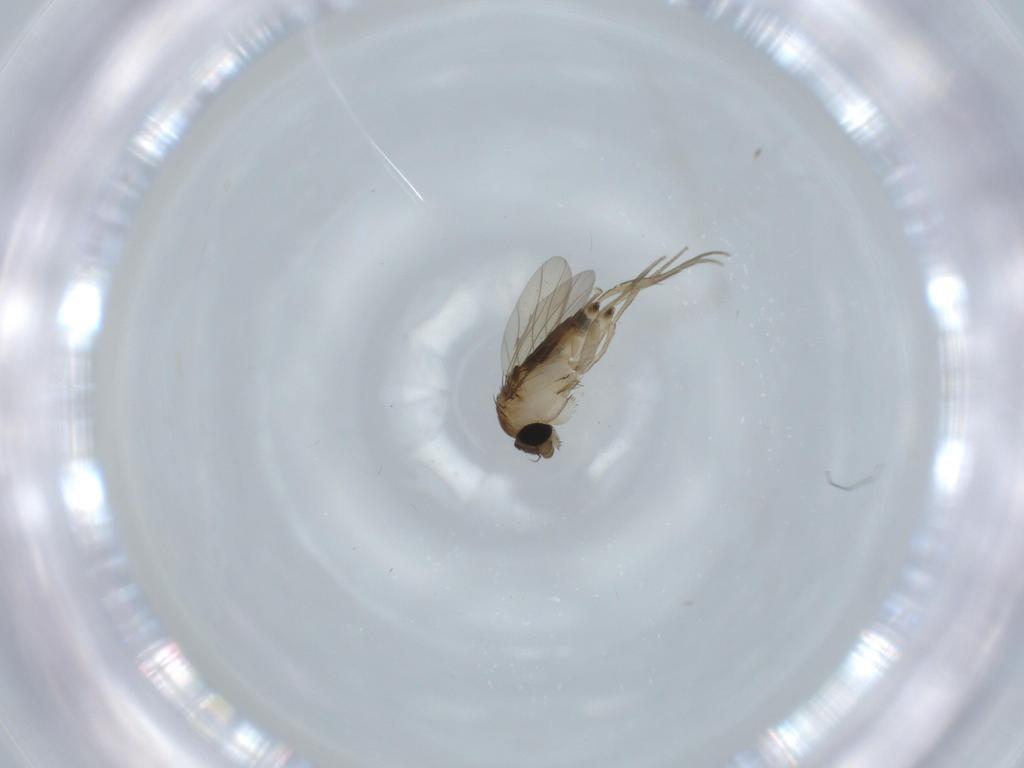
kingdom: Animalia
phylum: Arthropoda
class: Insecta
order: Diptera
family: Phoridae
